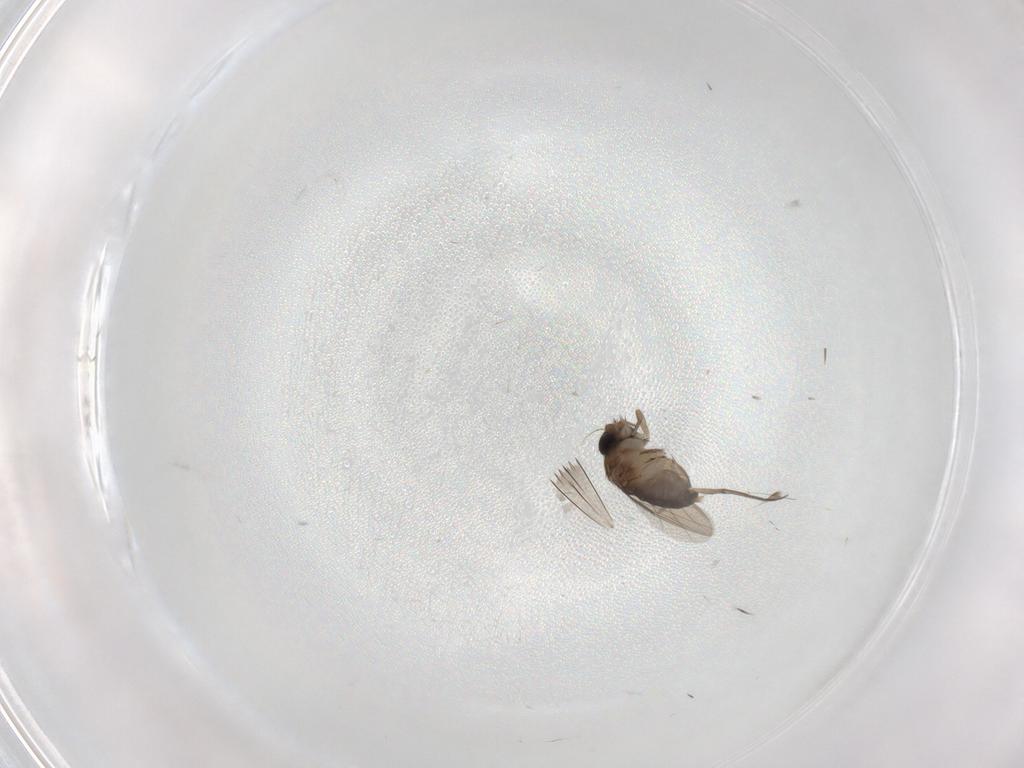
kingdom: Animalia
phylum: Arthropoda
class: Insecta
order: Diptera
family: Phoridae
